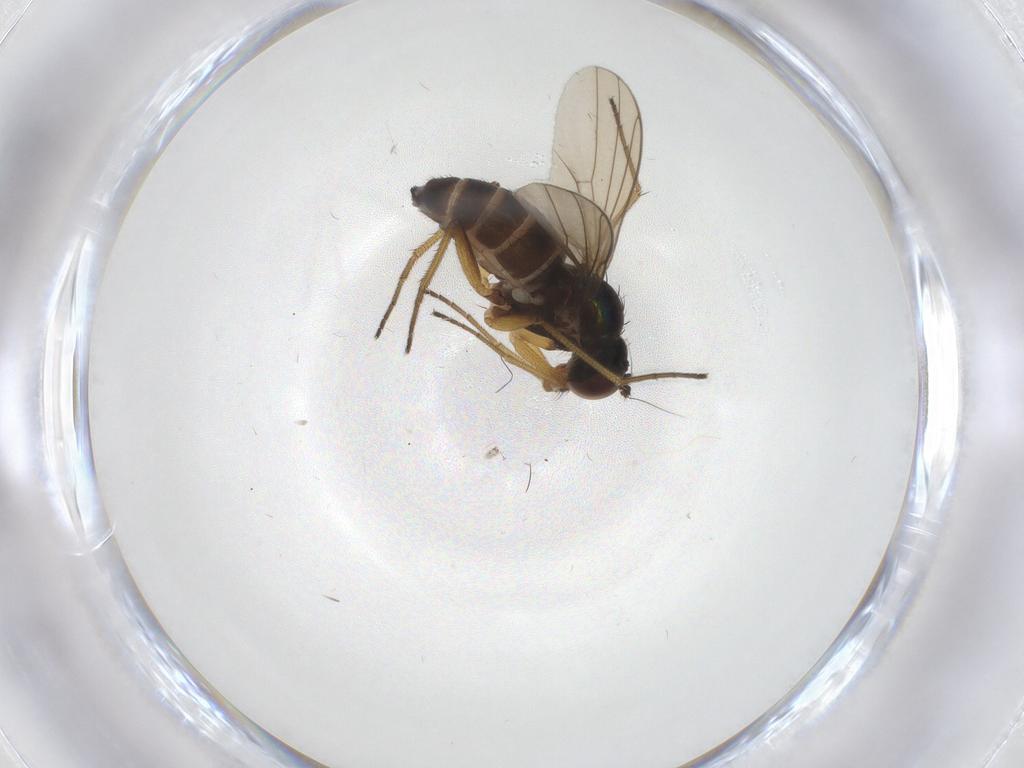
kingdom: Animalia
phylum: Arthropoda
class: Insecta
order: Diptera
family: Dolichopodidae
